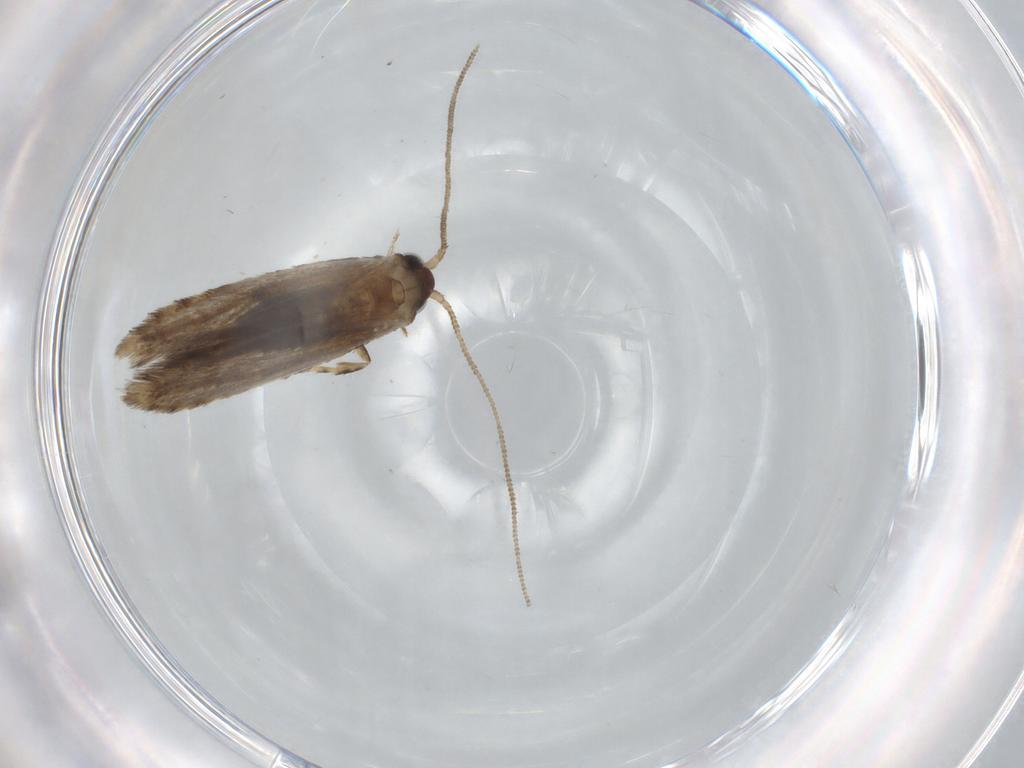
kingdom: Animalia
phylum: Arthropoda
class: Insecta
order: Lepidoptera
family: Tineidae
